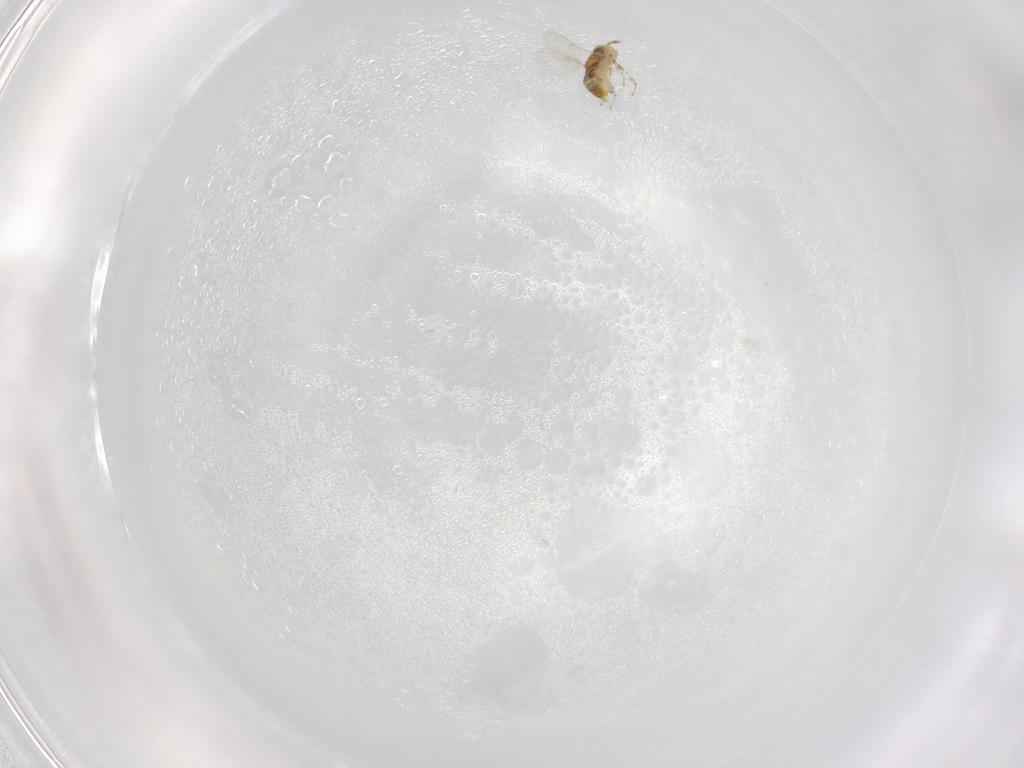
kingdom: Animalia
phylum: Arthropoda
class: Insecta
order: Hymenoptera
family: Encyrtidae
